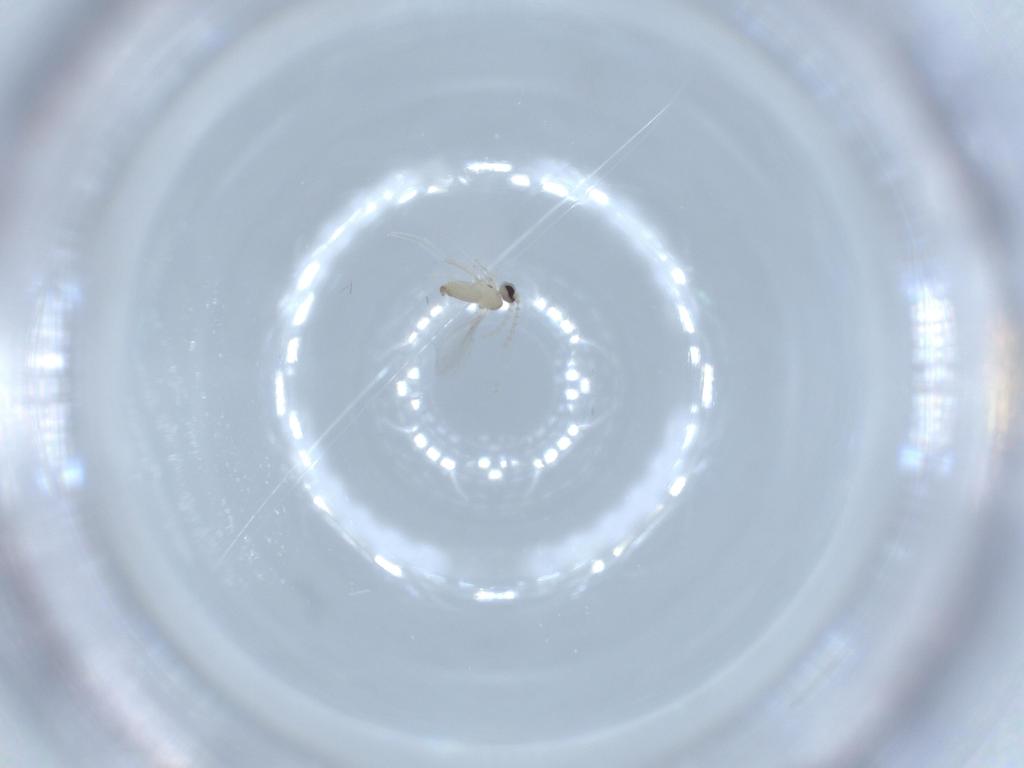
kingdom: Animalia
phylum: Arthropoda
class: Insecta
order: Diptera
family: Cecidomyiidae
